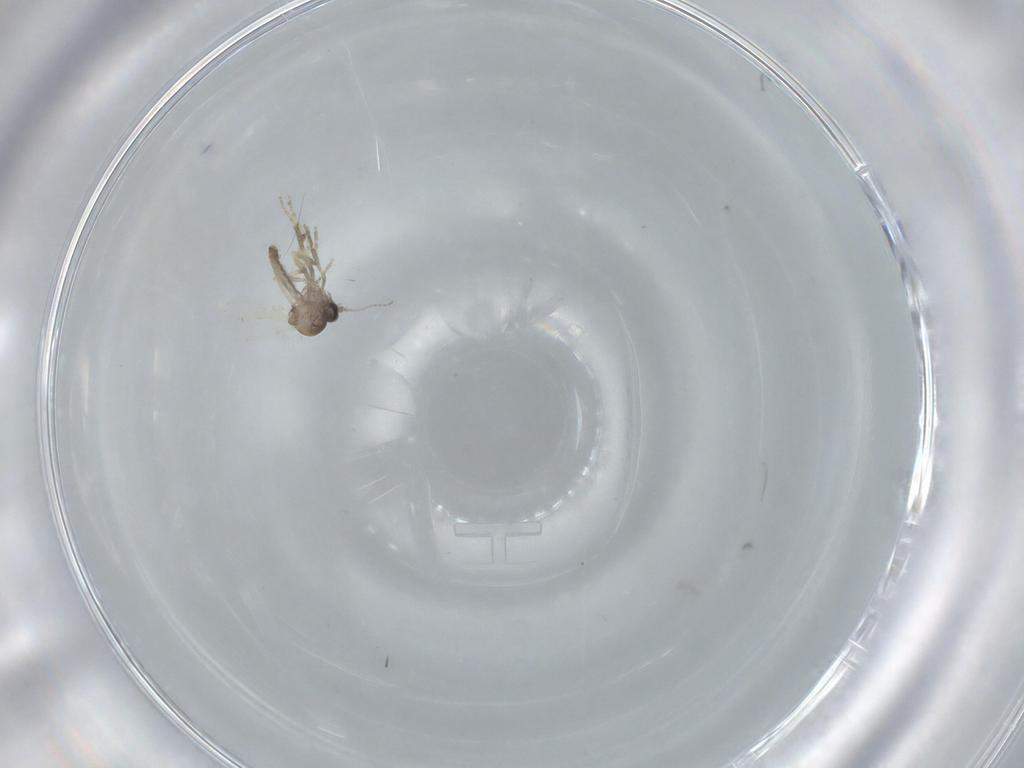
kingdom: Animalia
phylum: Arthropoda
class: Insecta
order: Diptera
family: Ceratopogonidae
